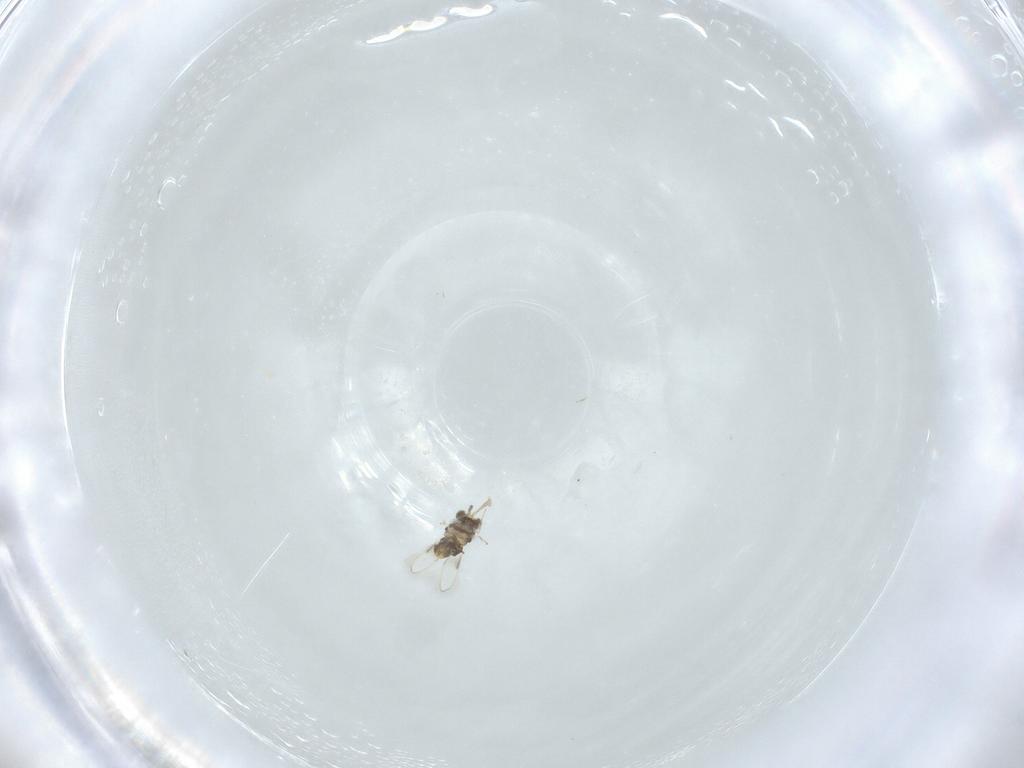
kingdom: Animalia
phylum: Arthropoda
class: Insecta
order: Hymenoptera
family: Aphelinidae
